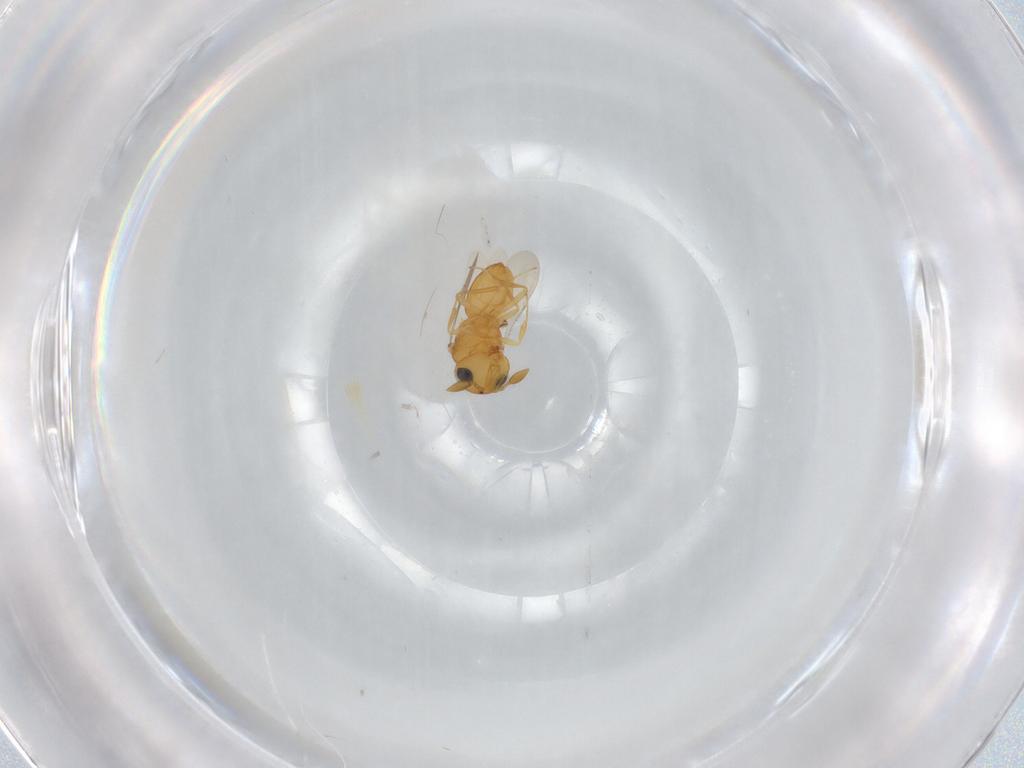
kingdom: Animalia
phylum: Arthropoda
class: Insecta
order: Hymenoptera
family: Scelionidae
